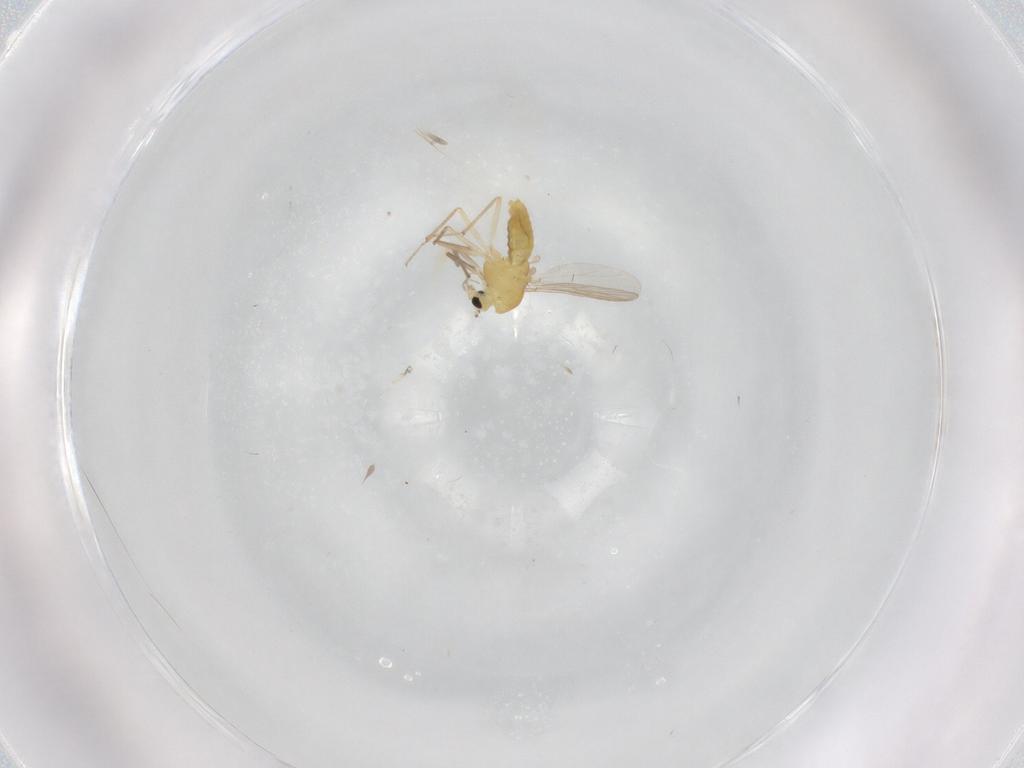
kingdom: Animalia
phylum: Arthropoda
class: Insecta
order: Diptera
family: Chironomidae
